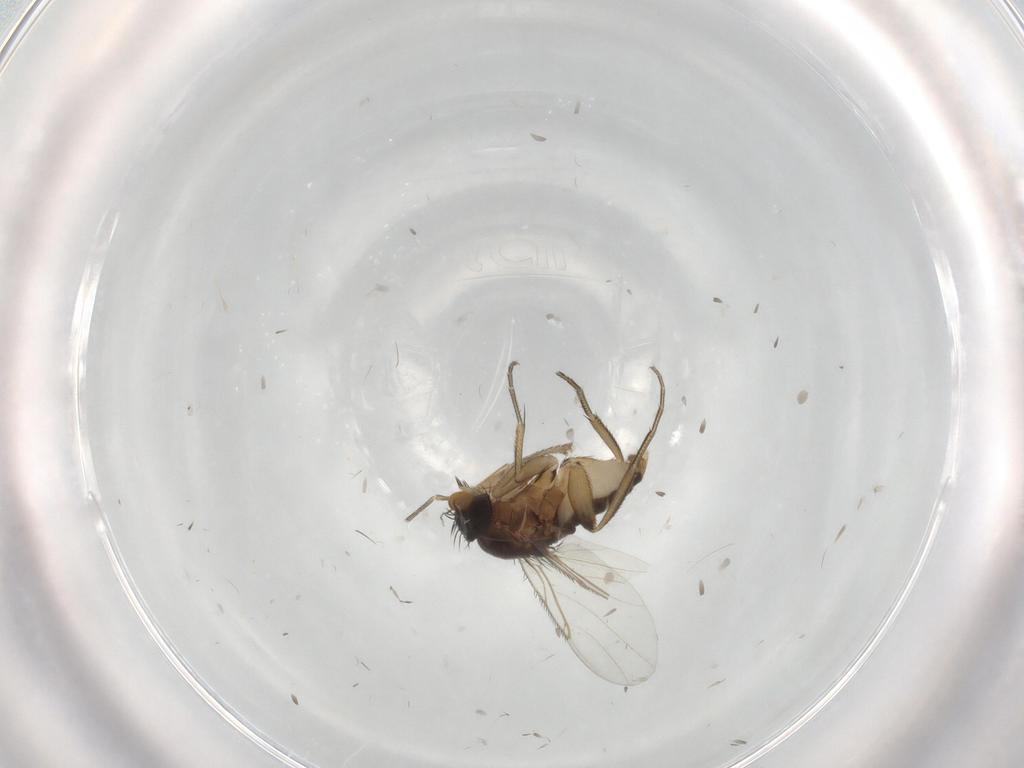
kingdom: Animalia
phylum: Arthropoda
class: Insecta
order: Diptera
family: Phoridae
